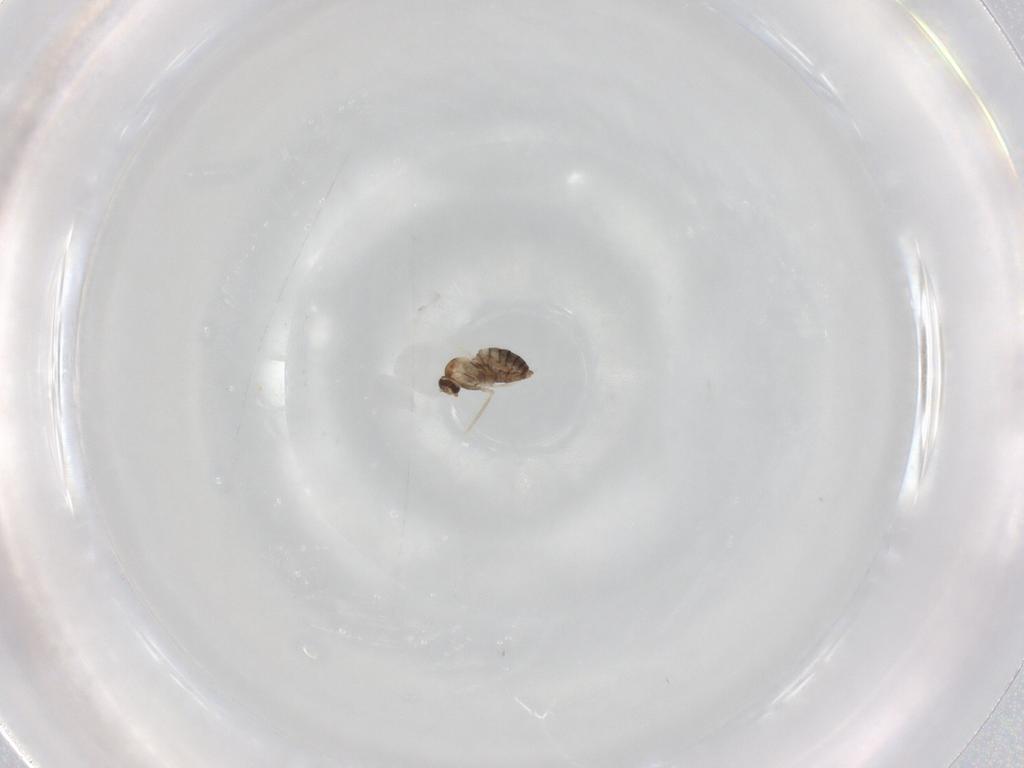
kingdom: Animalia
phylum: Arthropoda
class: Insecta
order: Diptera
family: Cecidomyiidae
